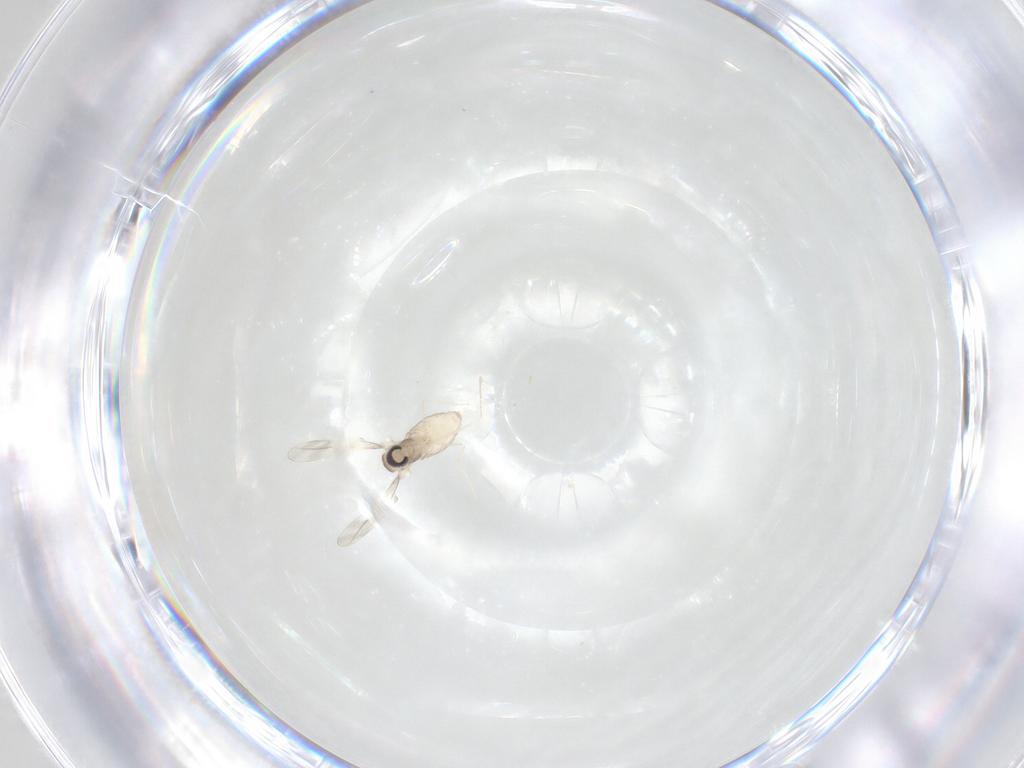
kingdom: Animalia
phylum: Arthropoda
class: Insecta
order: Diptera
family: Cecidomyiidae
